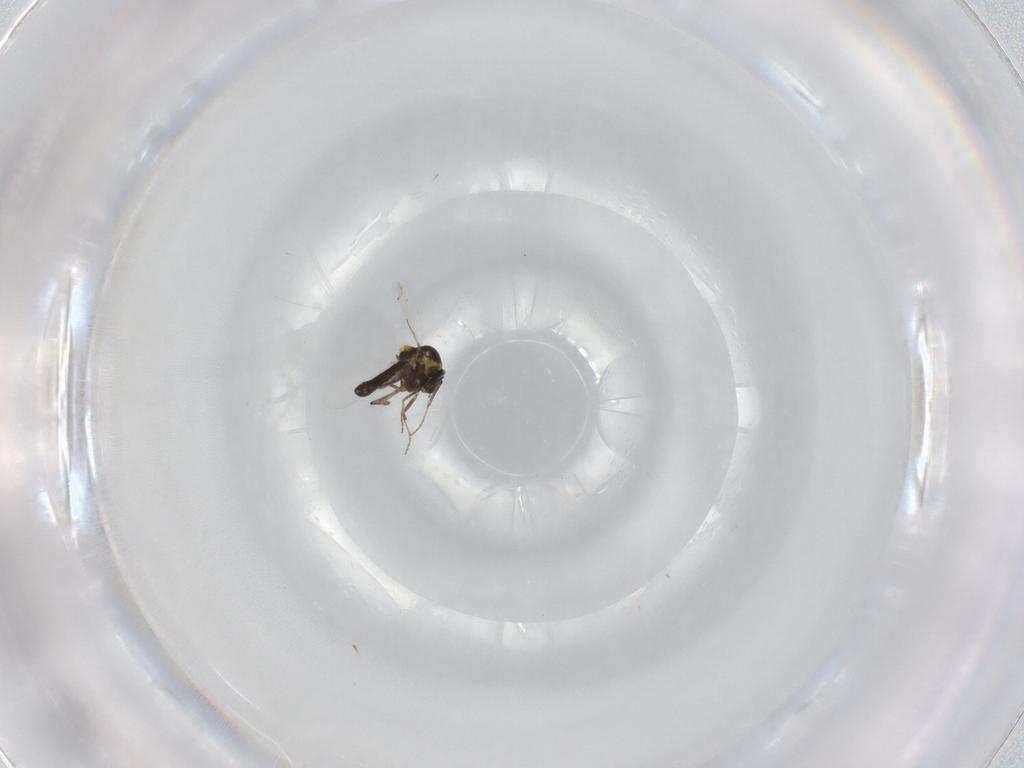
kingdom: Animalia
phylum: Arthropoda
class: Insecta
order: Diptera
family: Ceratopogonidae
